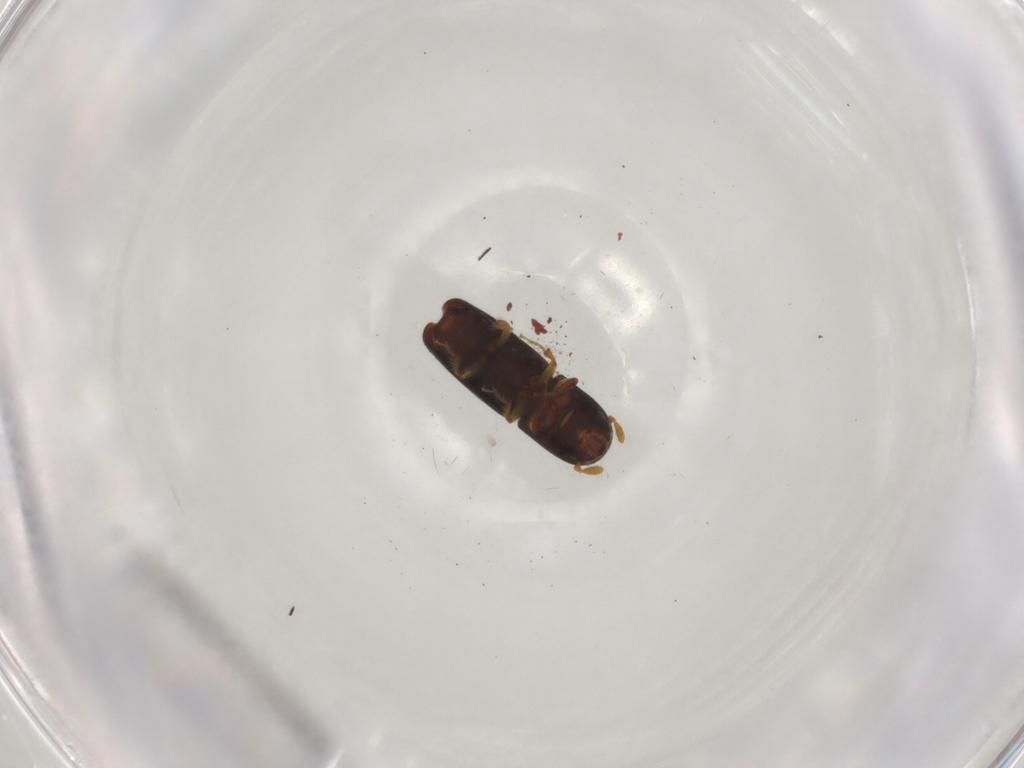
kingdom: Animalia
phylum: Arthropoda
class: Insecta
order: Coleoptera
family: Curculionidae
